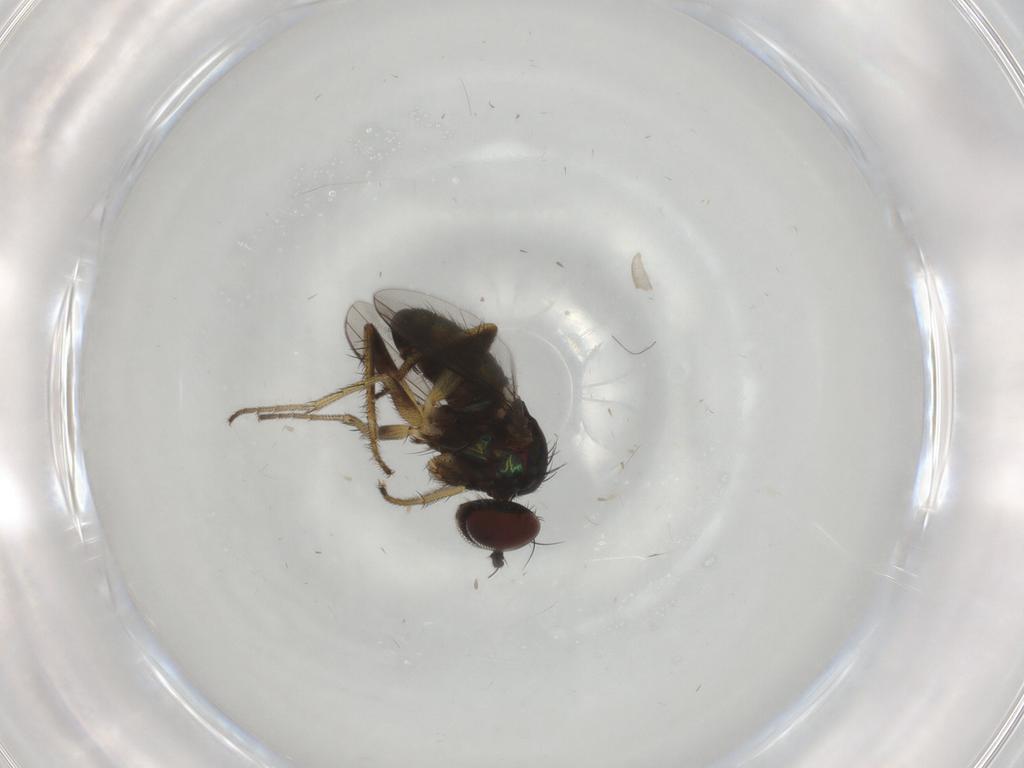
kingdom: Animalia
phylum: Arthropoda
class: Insecta
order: Diptera
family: Dolichopodidae
